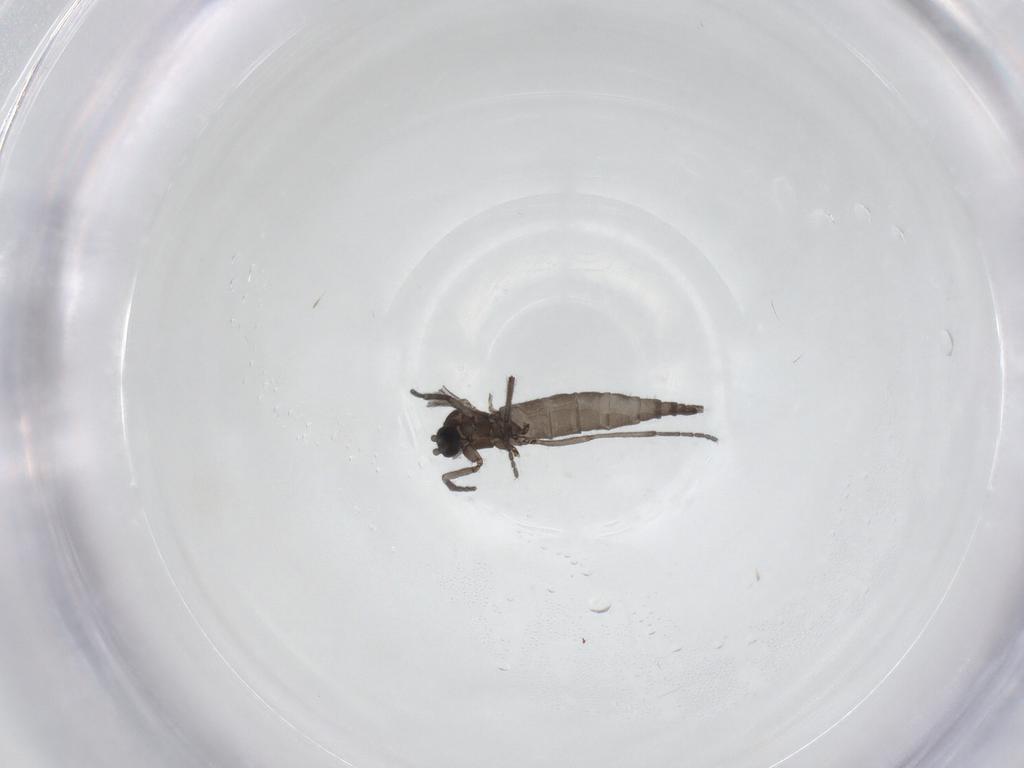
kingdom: Animalia
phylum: Arthropoda
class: Insecta
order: Diptera
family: Sciaridae
